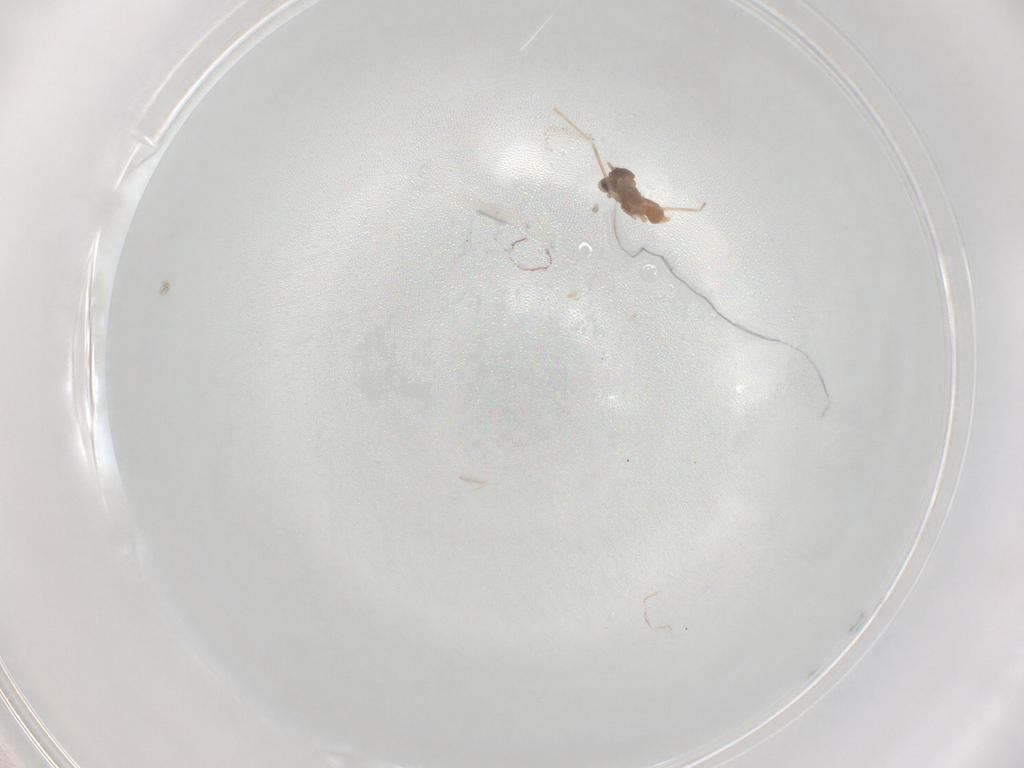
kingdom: Animalia
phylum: Arthropoda
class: Insecta
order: Diptera
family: Cecidomyiidae
